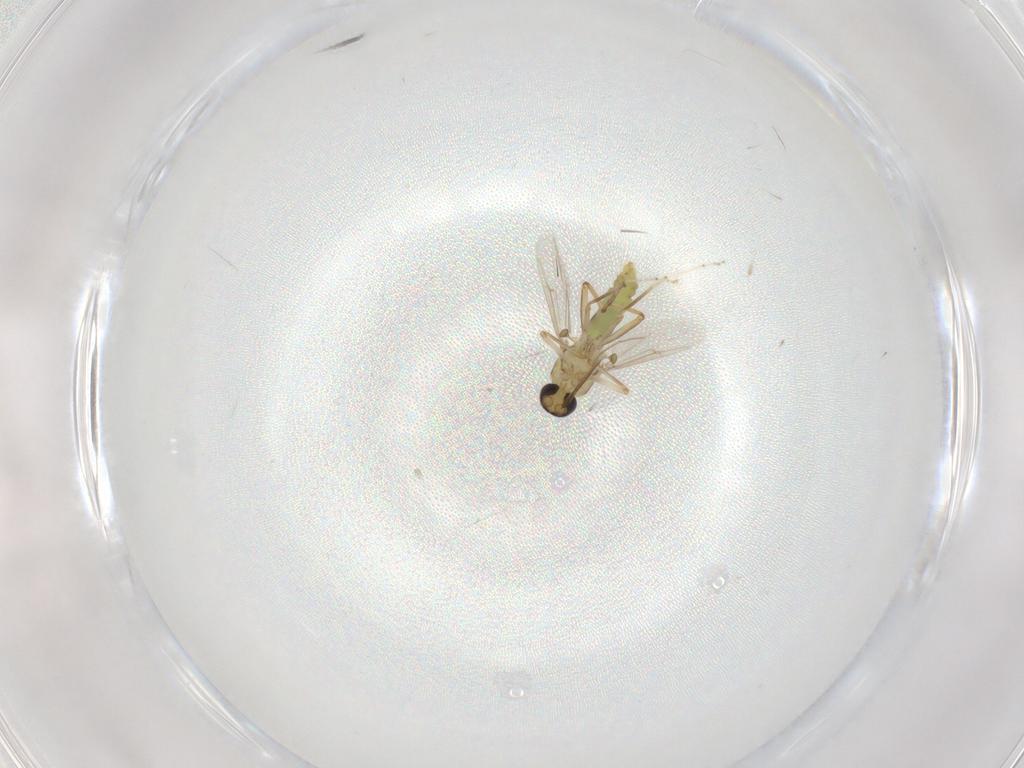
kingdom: Animalia
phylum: Arthropoda
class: Insecta
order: Diptera
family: Ceratopogonidae
